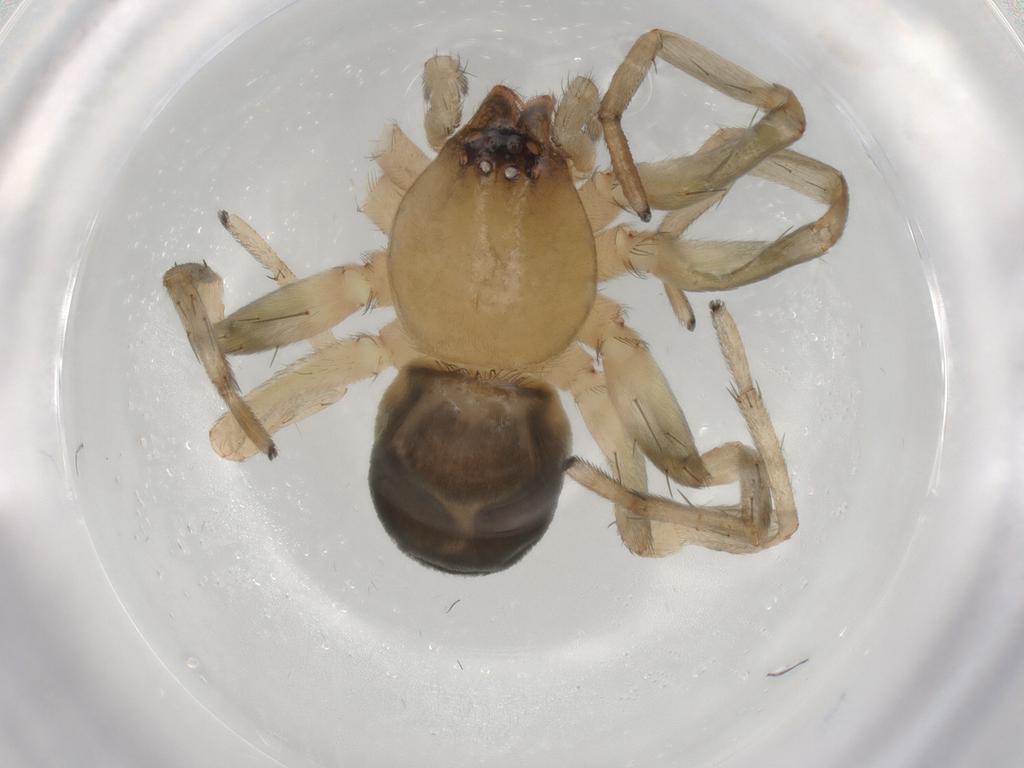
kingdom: Animalia
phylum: Arthropoda
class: Arachnida
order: Araneae
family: Clubionidae
